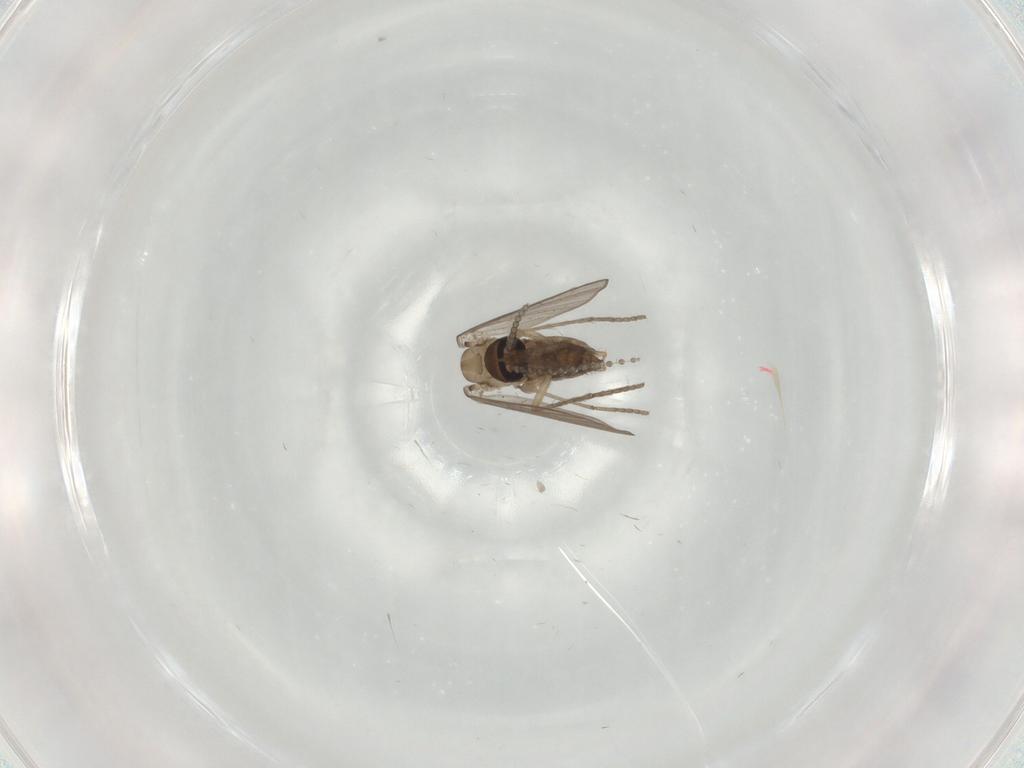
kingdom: Animalia
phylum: Arthropoda
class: Insecta
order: Diptera
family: Psychodidae
